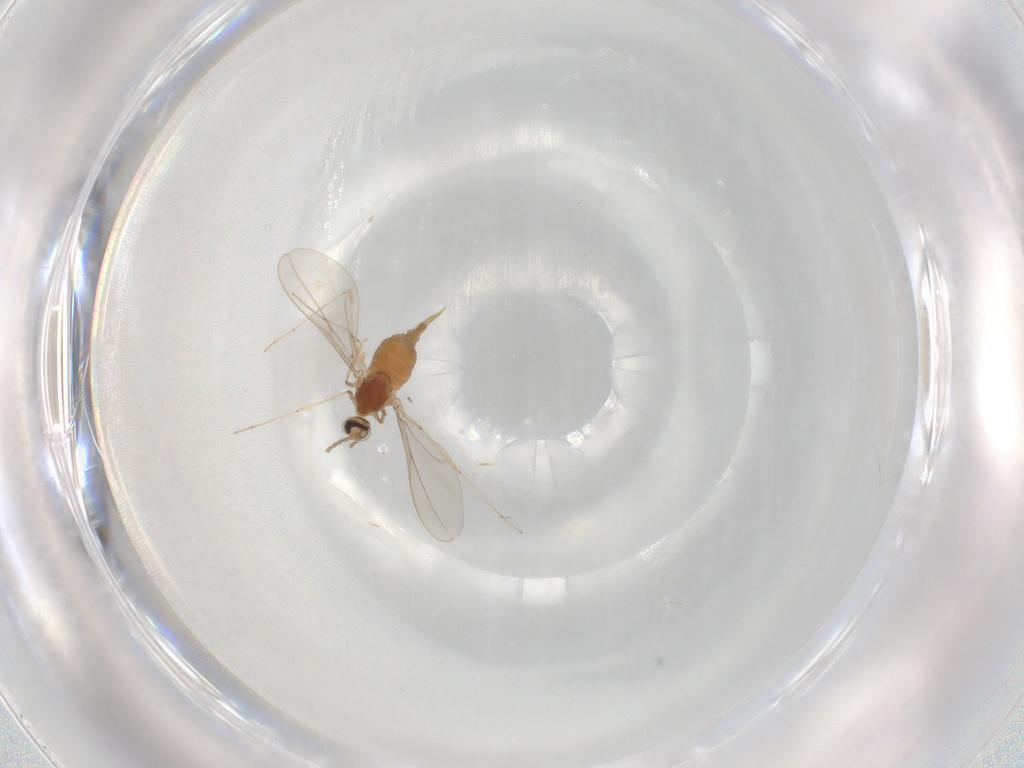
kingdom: Animalia
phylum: Arthropoda
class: Insecta
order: Diptera
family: Cecidomyiidae
